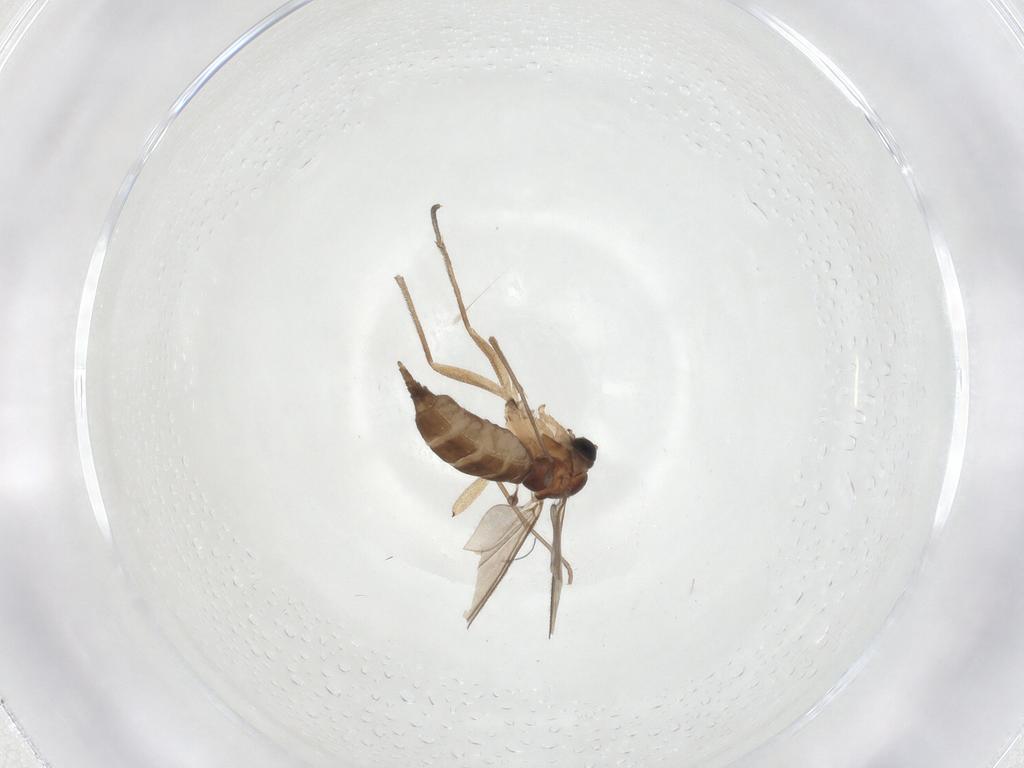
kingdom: Animalia
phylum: Arthropoda
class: Insecta
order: Diptera
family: Sciaridae
